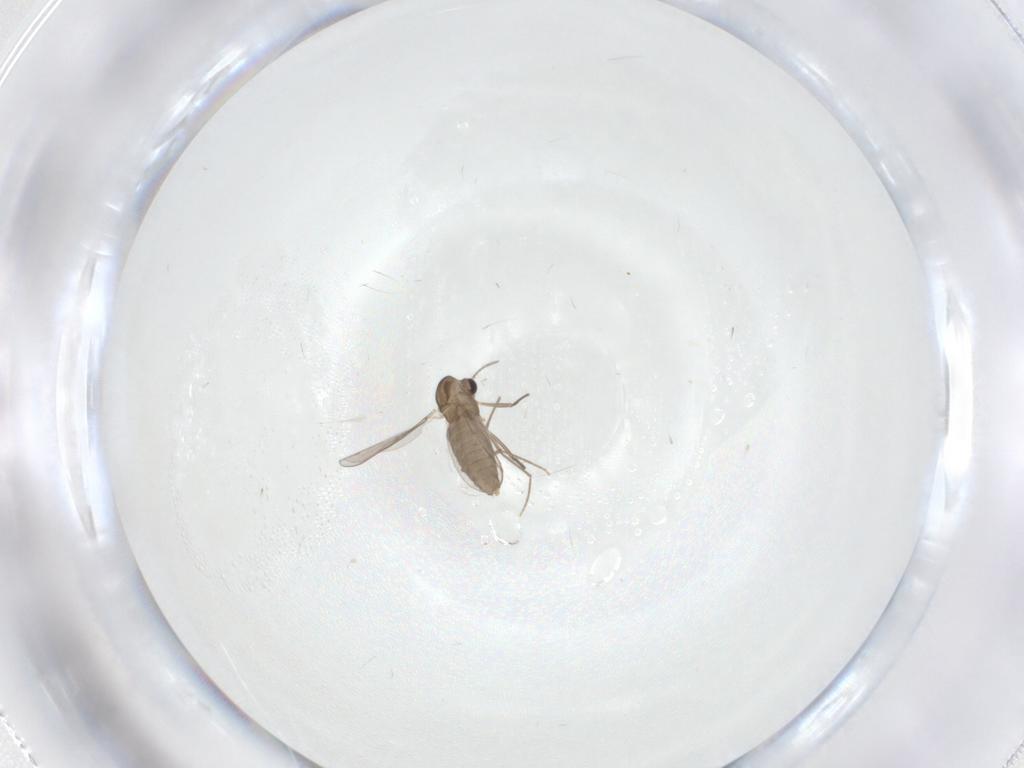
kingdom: Animalia
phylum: Arthropoda
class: Insecta
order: Diptera
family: Chironomidae
